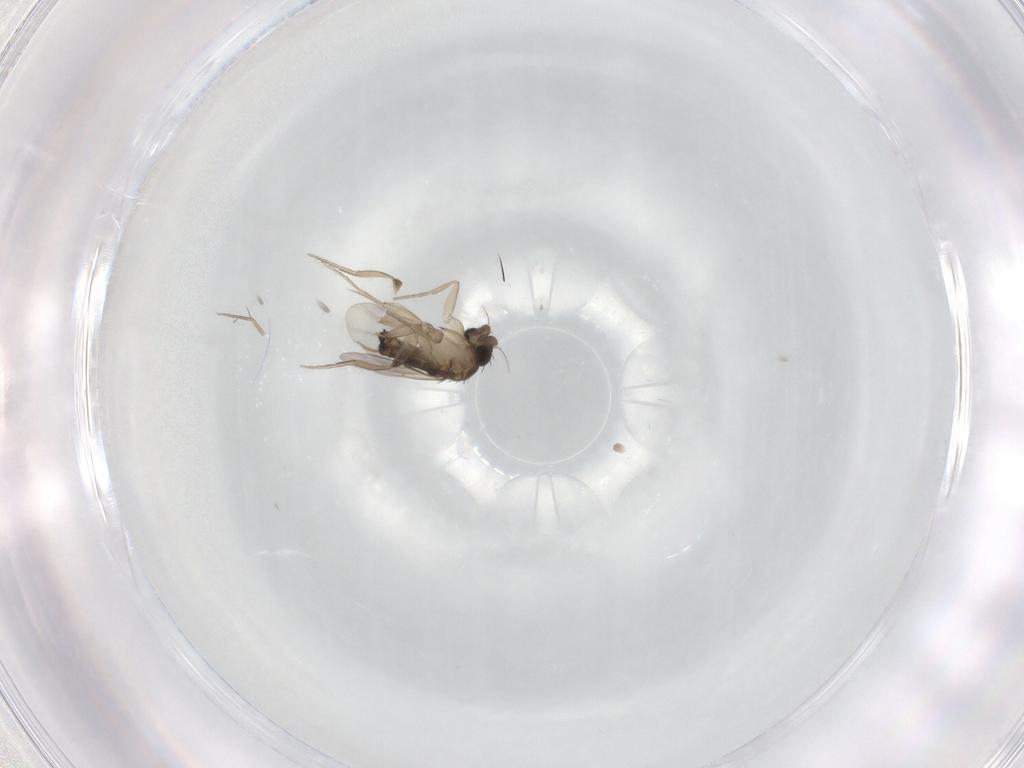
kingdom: Animalia
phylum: Arthropoda
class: Insecta
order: Diptera
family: Phoridae
